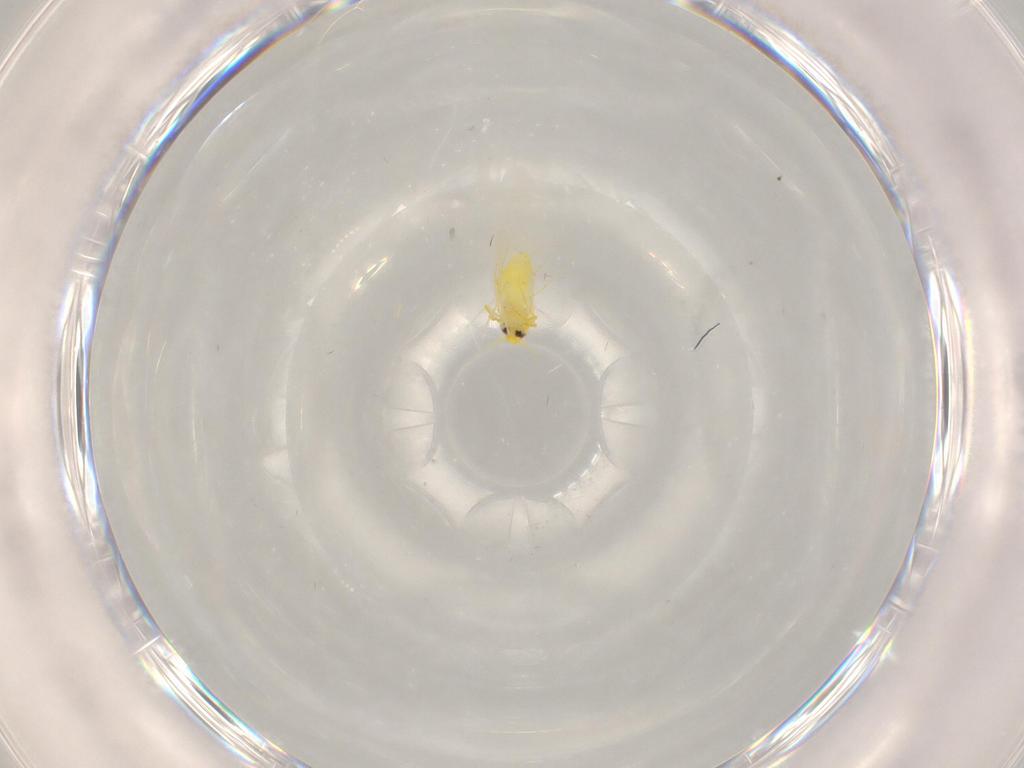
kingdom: Animalia
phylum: Arthropoda
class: Insecta
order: Hemiptera
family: Aleyrodidae
